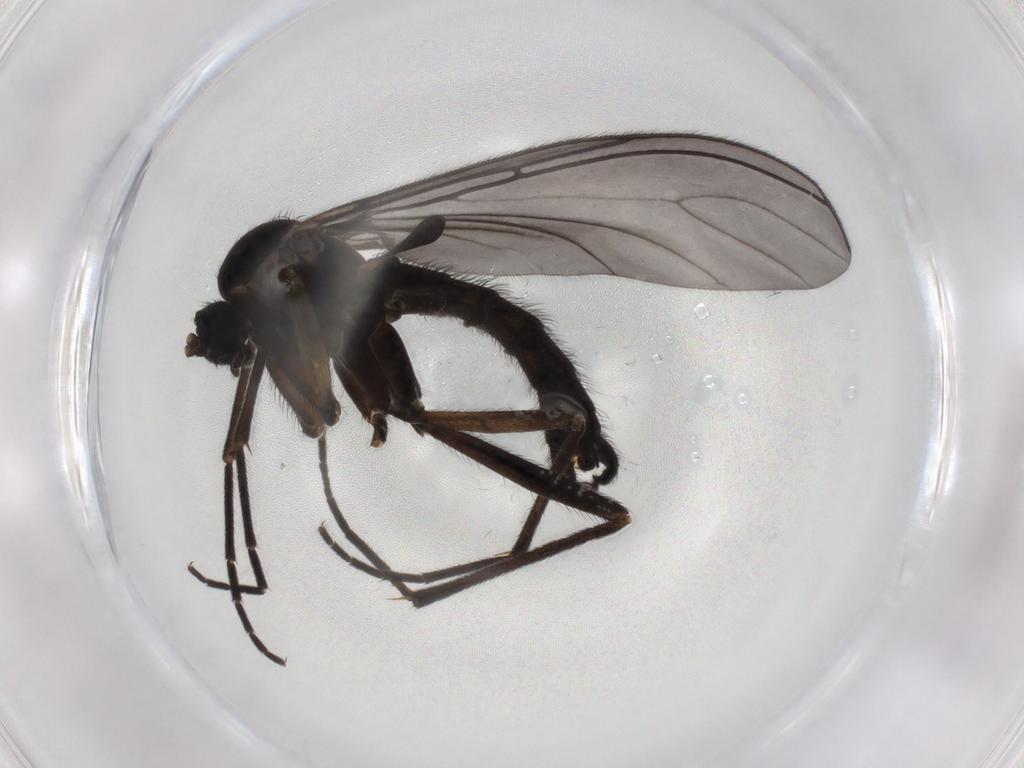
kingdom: Animalia
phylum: Arthropoda
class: Insecta
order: Diptera
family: Sciaridae
